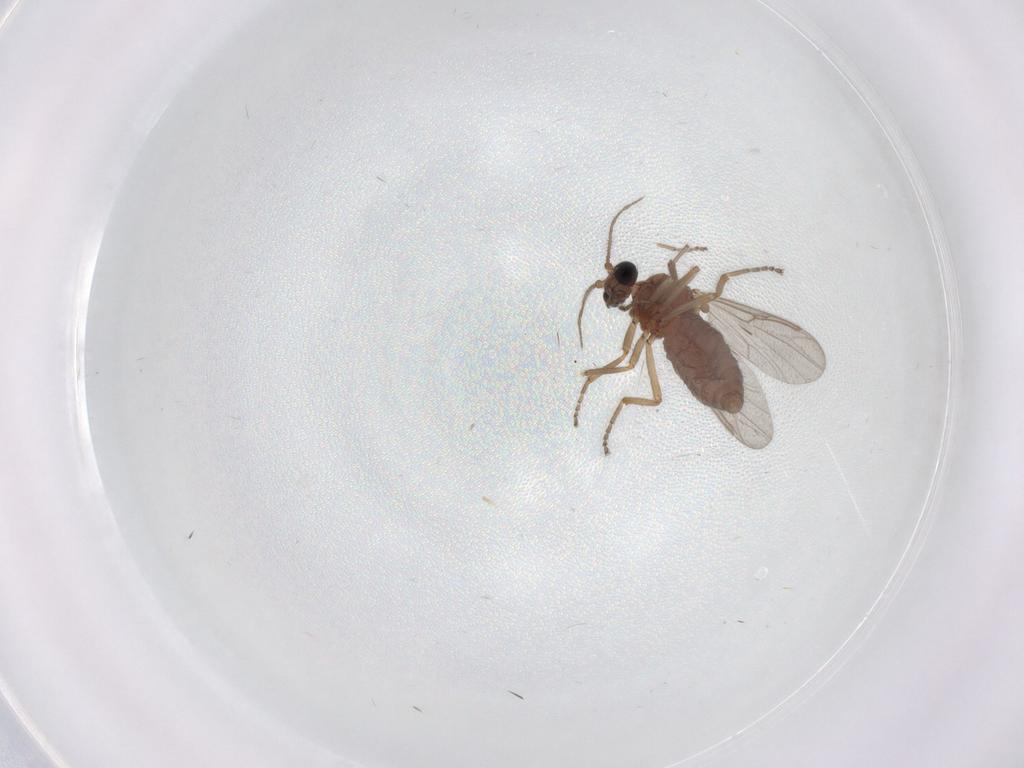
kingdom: Animalia
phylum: Arthropoda
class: Insecta
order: Diptera
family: Ceratopogonidae
